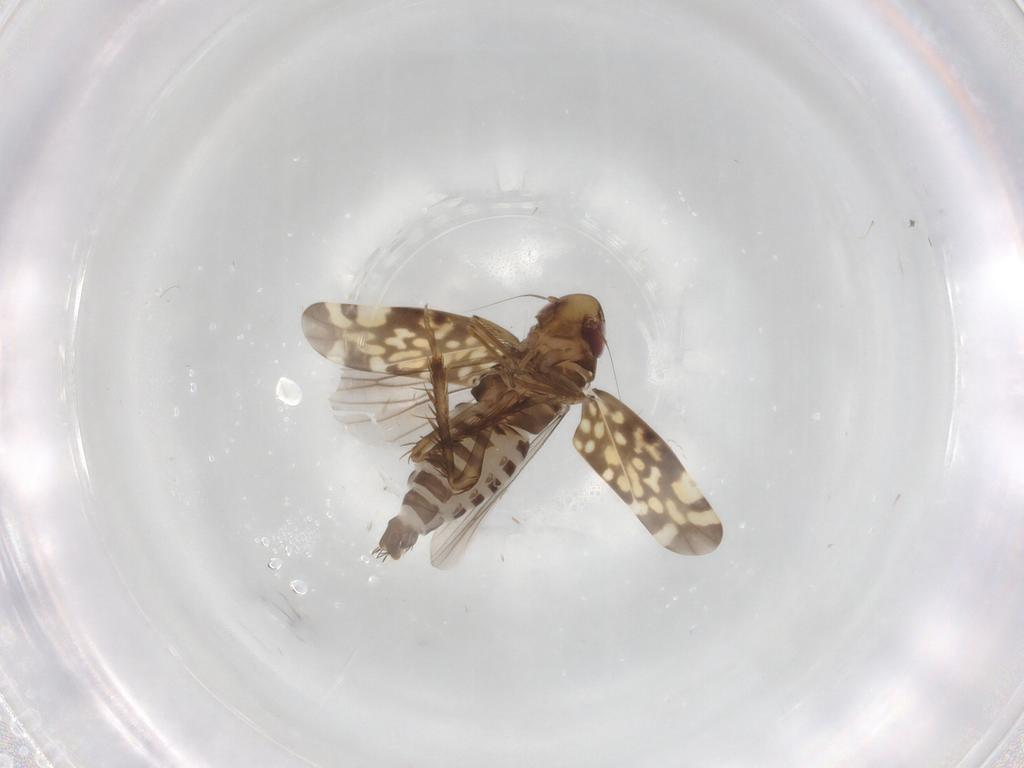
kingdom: Animalia
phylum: Arthropoda
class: Insecta
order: Hemiptera
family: Cicadellidae
